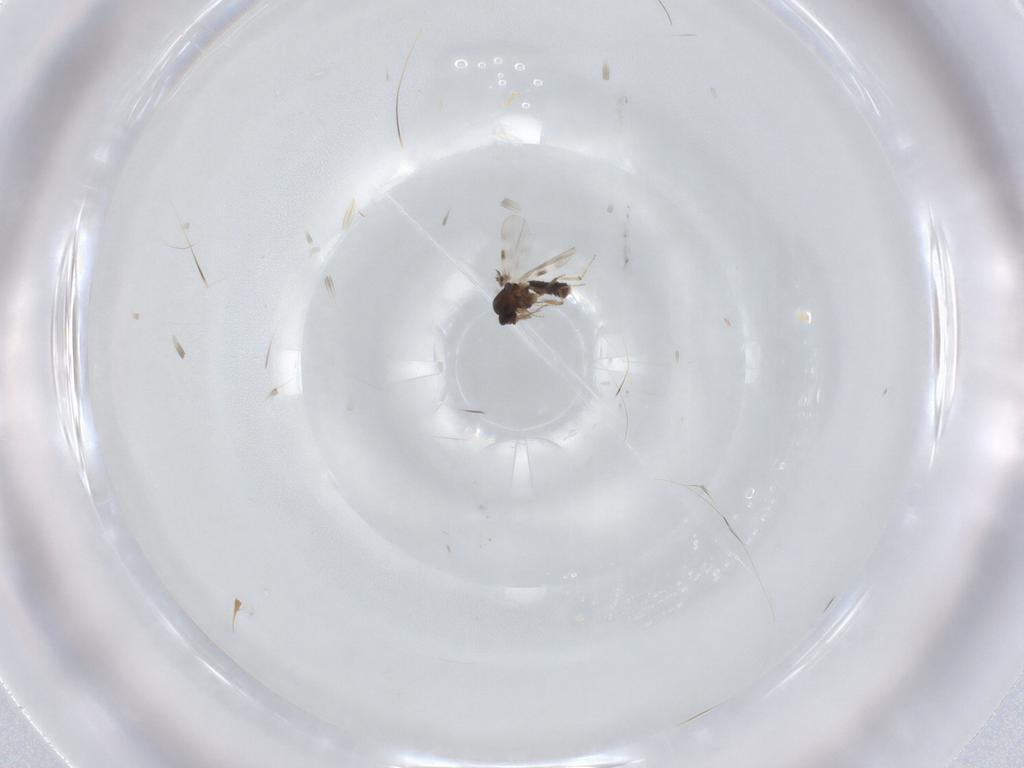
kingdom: Animalia
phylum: Arthropoda
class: Insecta
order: Diptera
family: Ceratopogonidae
